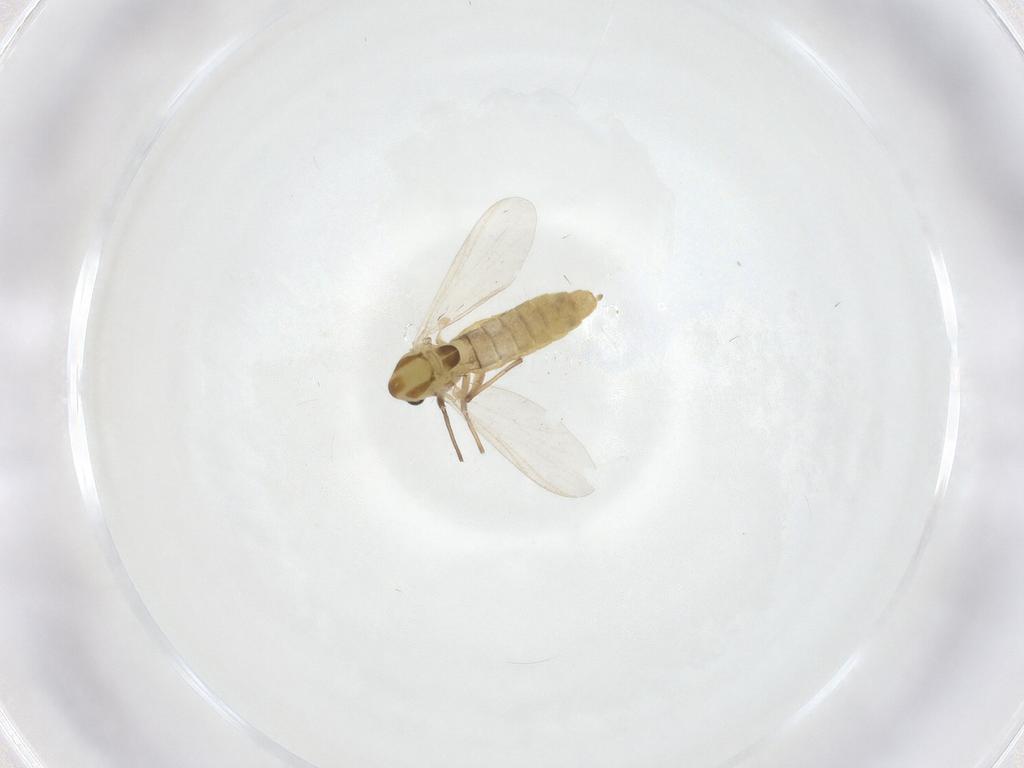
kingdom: Animalia
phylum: Arthropoda
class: Insecta
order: Diptera
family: Chironomidae
